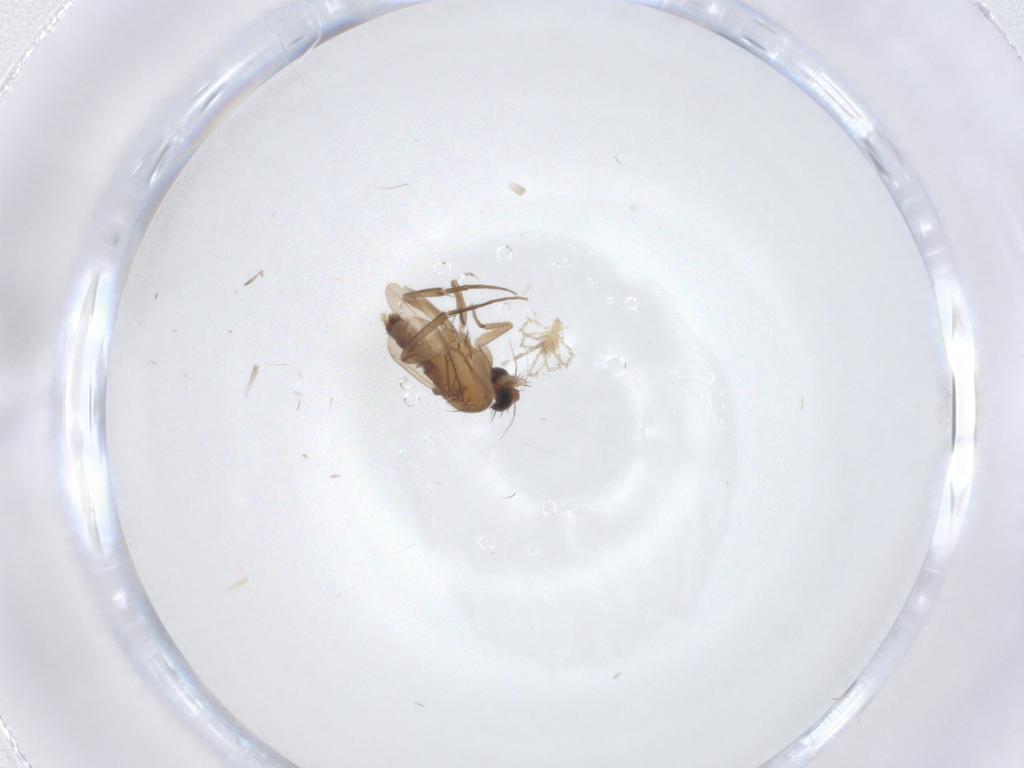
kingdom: Animalia
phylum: Arthropoda
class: Insecta
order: Diptera
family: Phoridae
